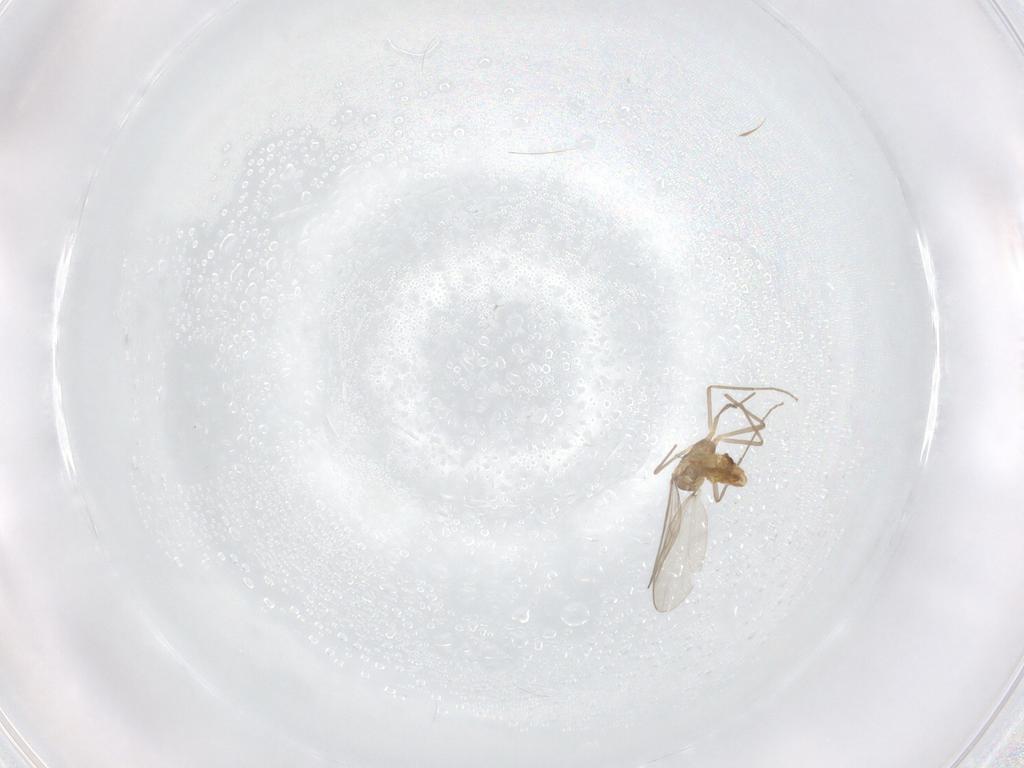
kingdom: Animalia
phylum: Arthropoda
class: Insecta
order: Diptera
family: Chironomidae
